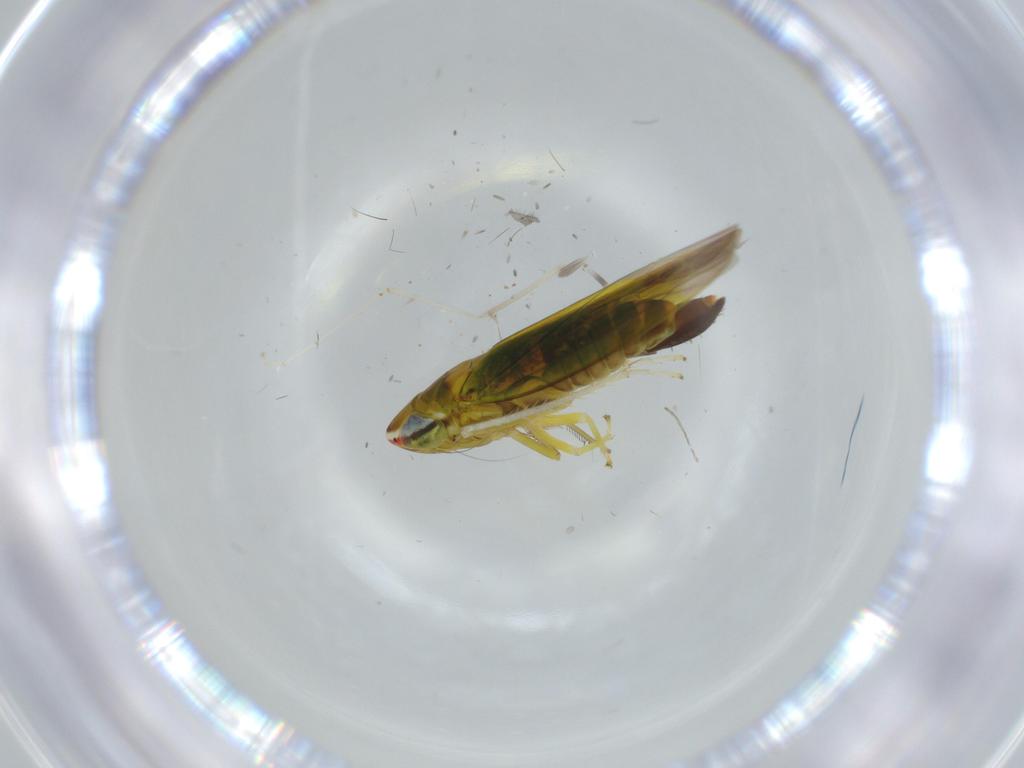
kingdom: Animalia
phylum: Arthropoda
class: Insecta
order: Hemiptera
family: Cicadellidae
